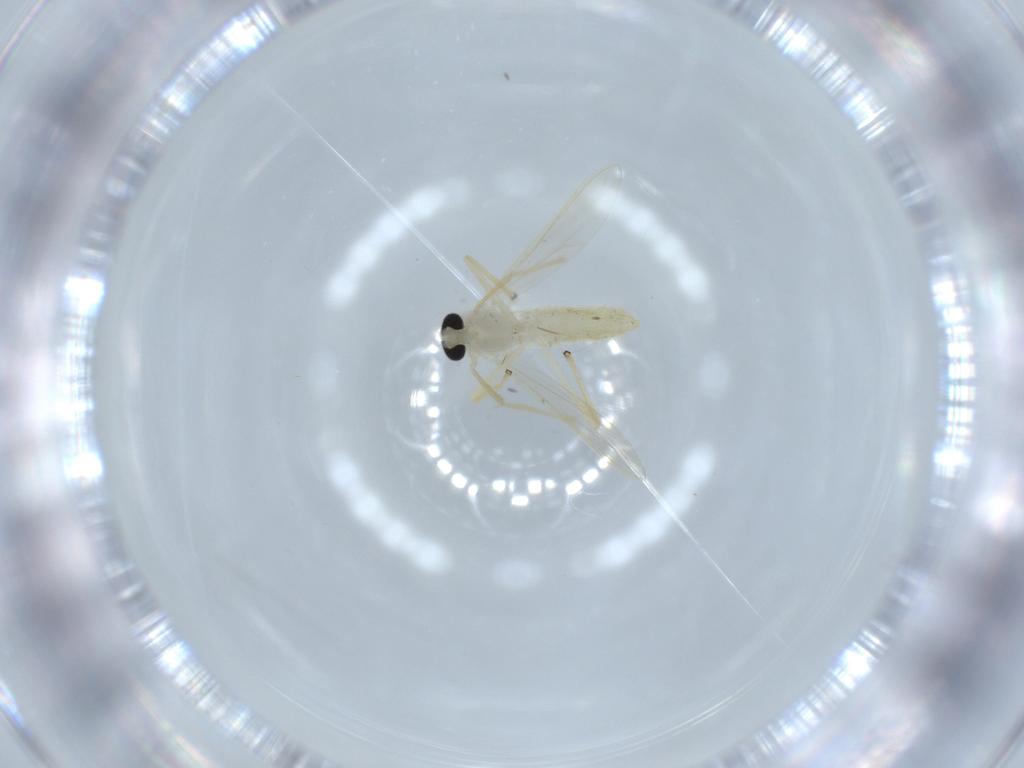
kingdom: Animalia
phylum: Arthropoda
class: Insecta
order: Diptera
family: Chironomidae
